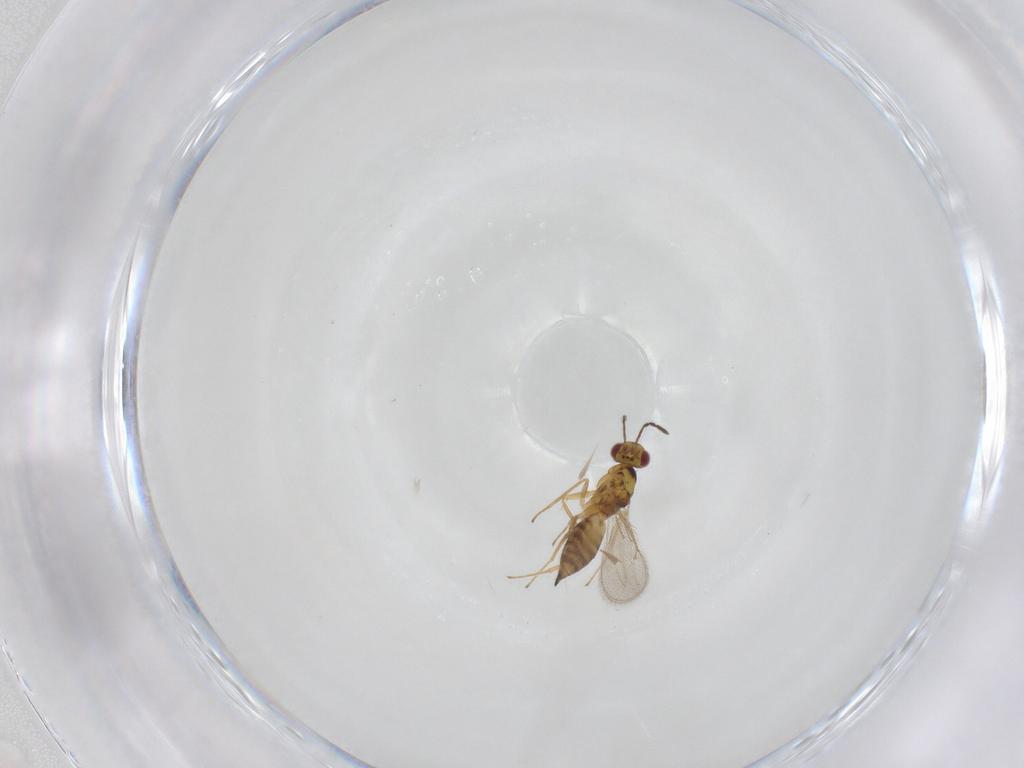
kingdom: Animalia
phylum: Arthropoda
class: Insecta
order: Hymenoptera
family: Eulophidae
